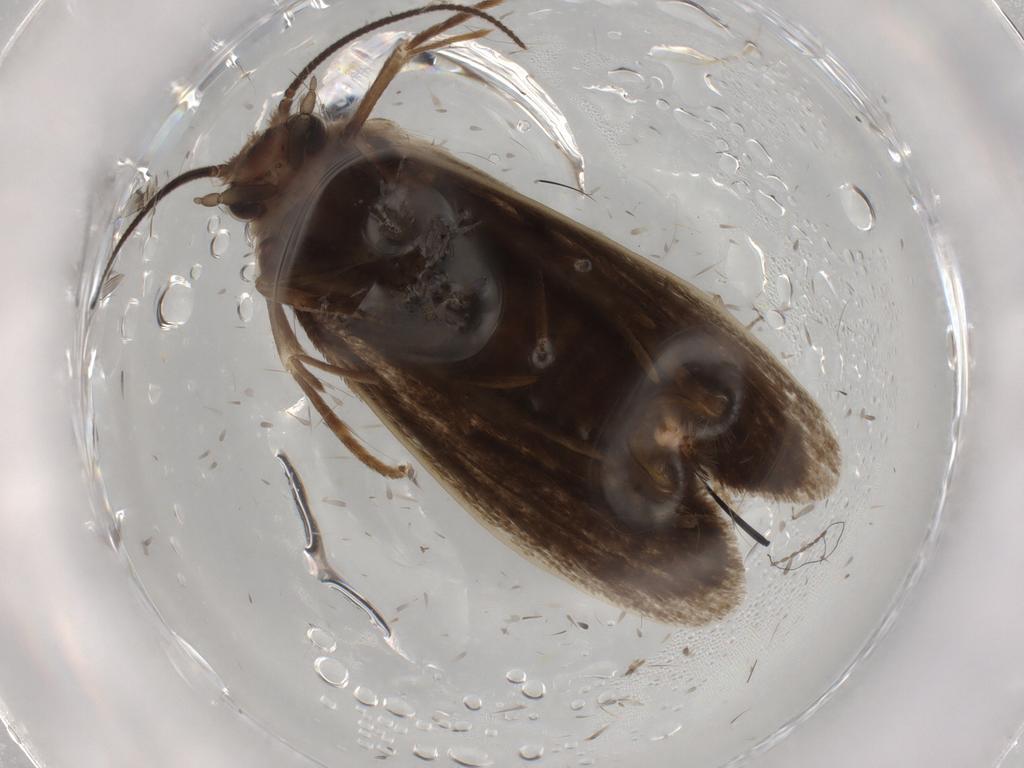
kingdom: Animalia
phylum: Arthropoda
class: Insecta
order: Lepidoptera
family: Tineidae
